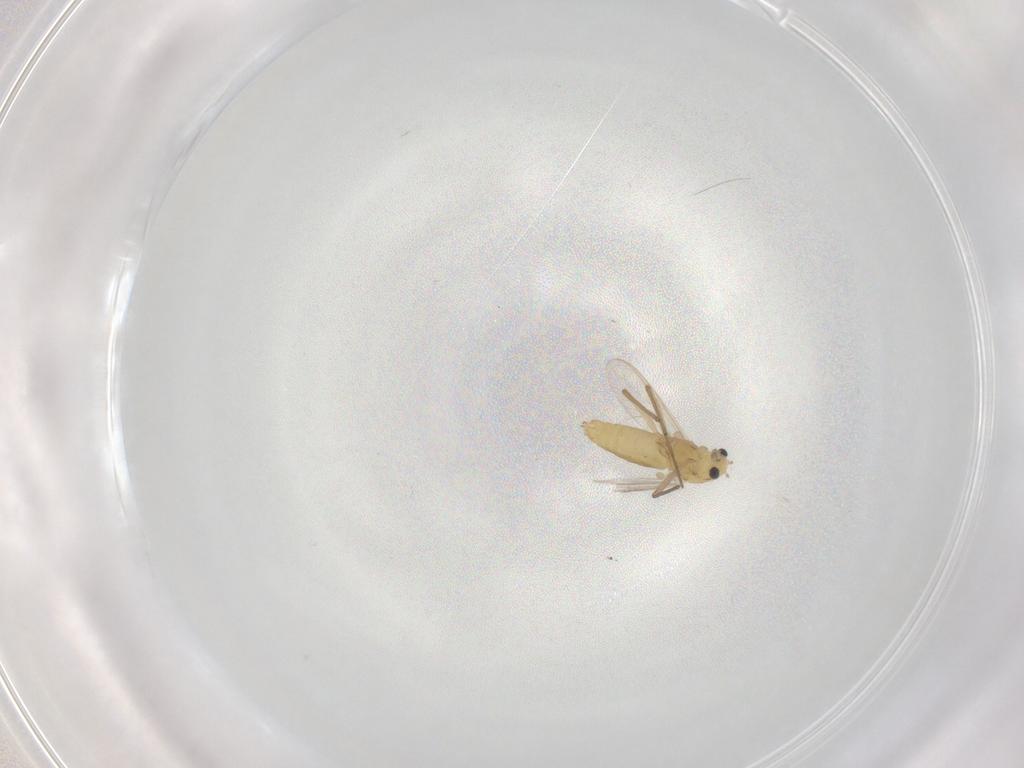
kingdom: Animalia
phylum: Arthropoda
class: Insecta
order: Diptera
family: Chironomidae
